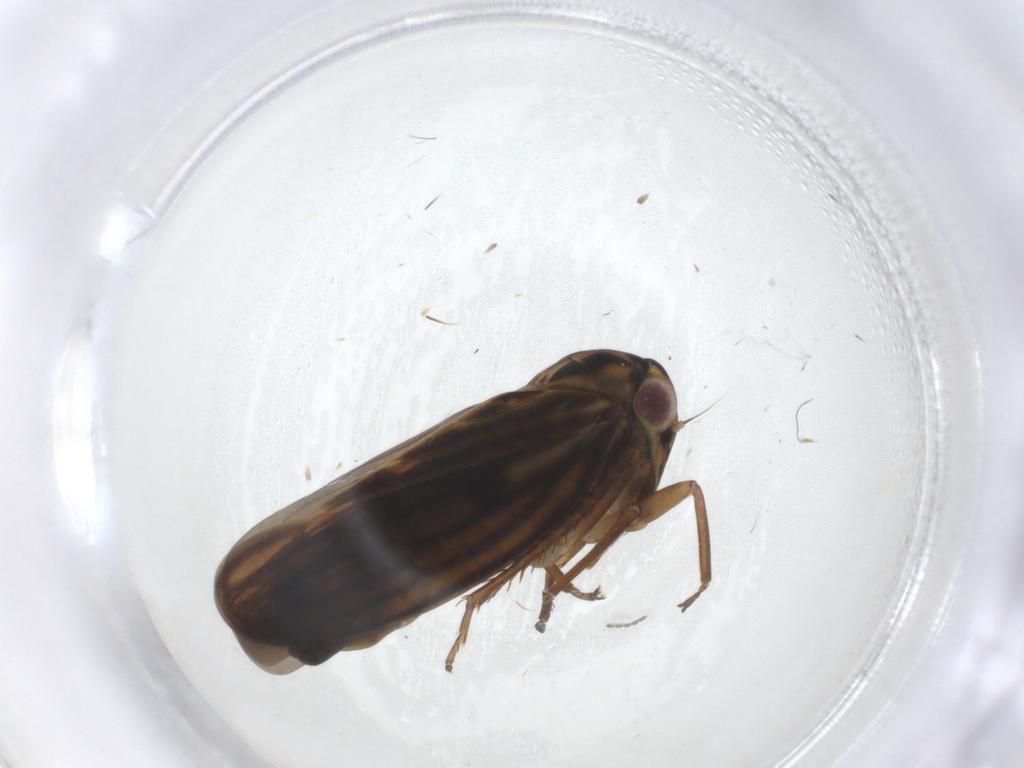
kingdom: Animalia
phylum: Arthropoda
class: Insecta
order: Hemiptera
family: Cicadellidae
